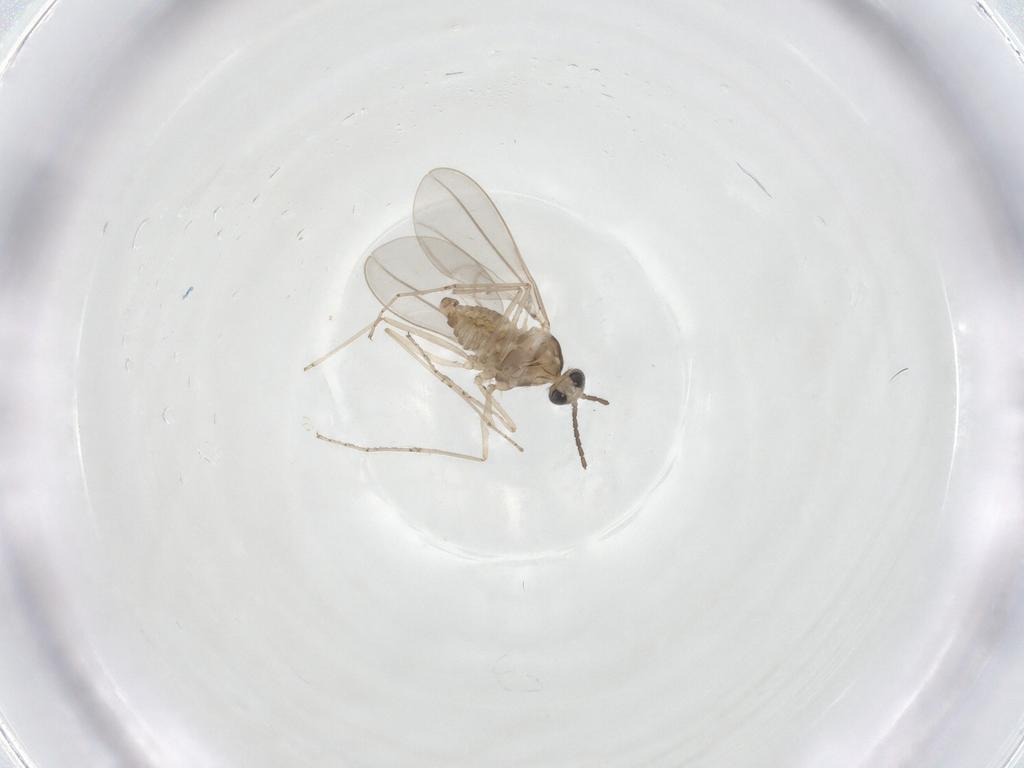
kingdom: Animalia
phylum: Arthropoda
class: Insecta
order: Diptera
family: Cecidomyiidae
